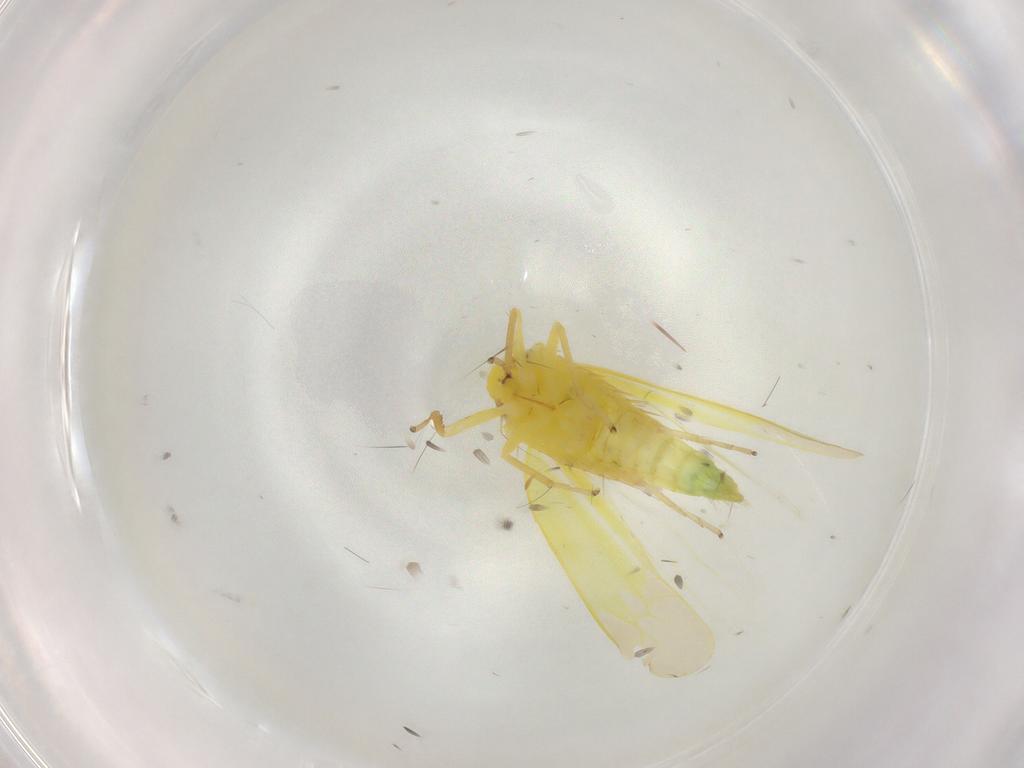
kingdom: Animalia
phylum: Arthropoda
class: Insecta
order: Hemiptera
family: Cicadellidae
